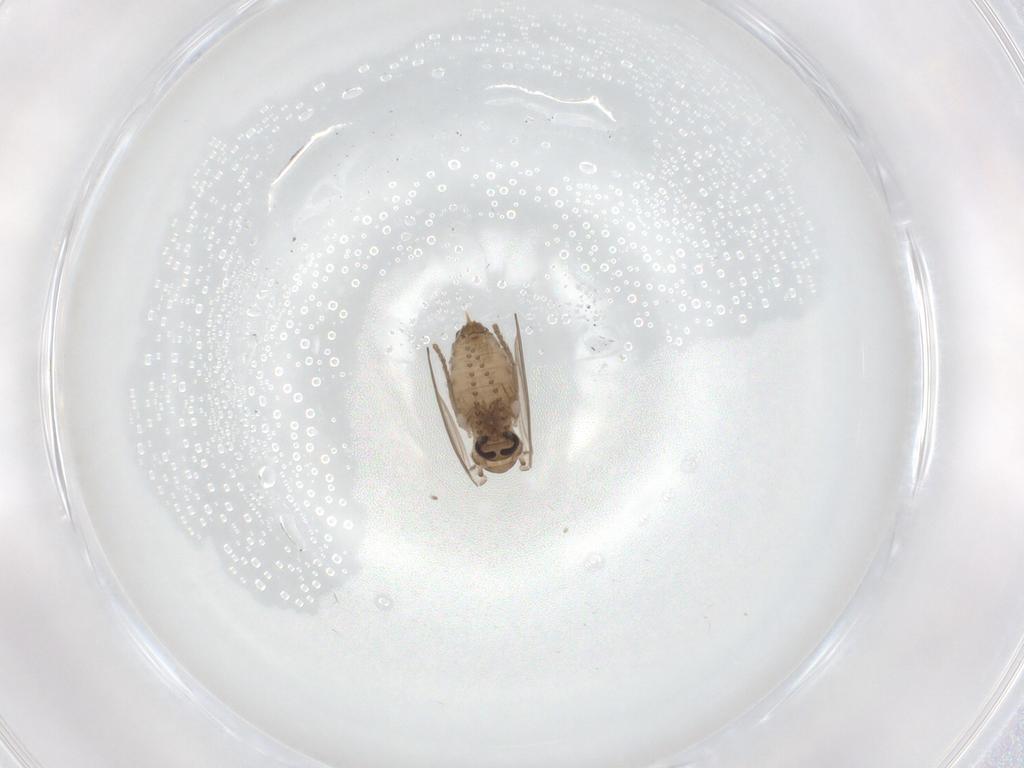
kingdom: Animalia
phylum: Arthropoda
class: Insecta
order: Diptera
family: Psychodidae
